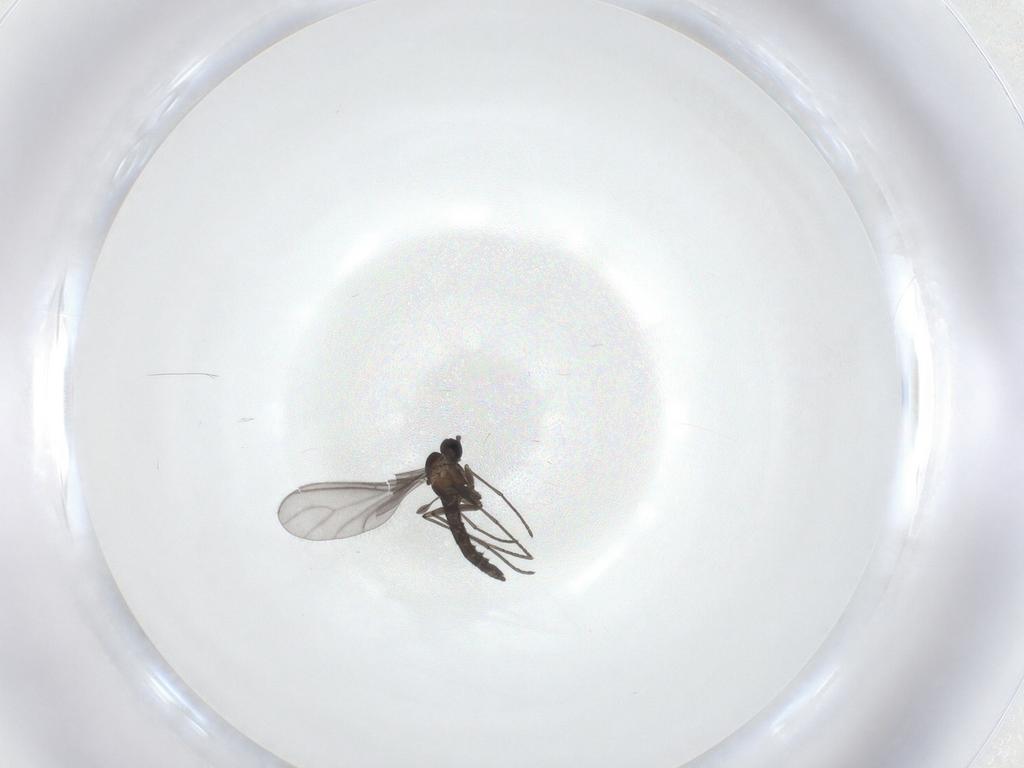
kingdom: Animalia
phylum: Arthropoda
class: Insecta
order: Diptera
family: Sciaridae
